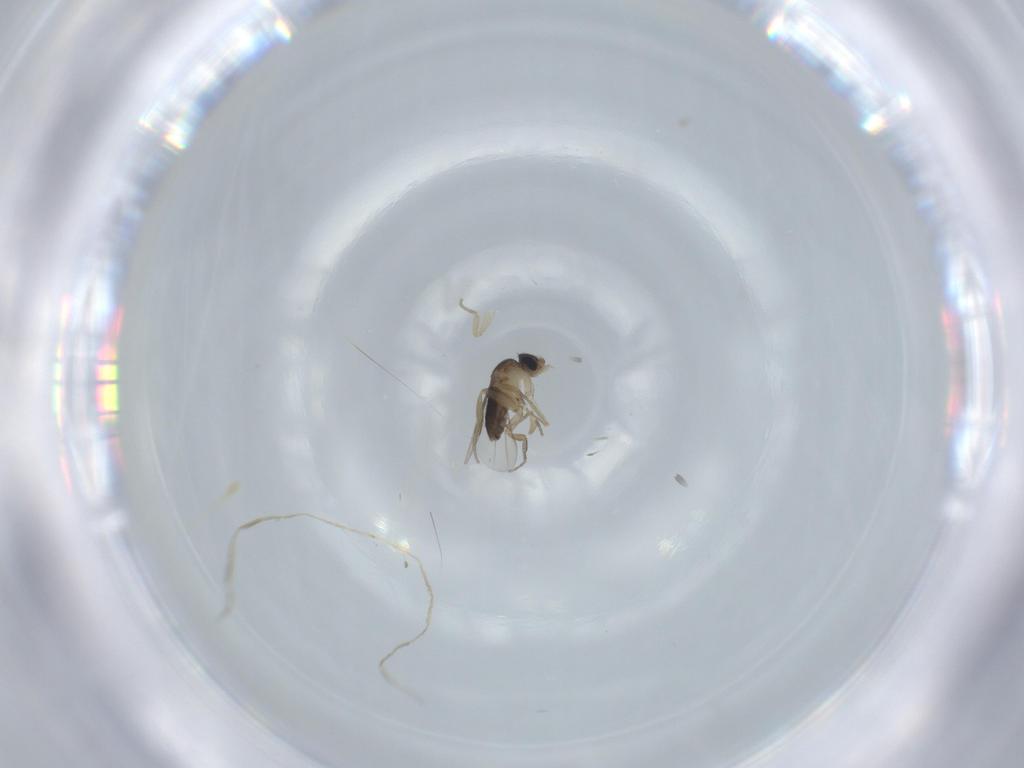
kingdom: Animalia
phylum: Arthropoda
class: Insecta
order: Diptera
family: Sciaridae
